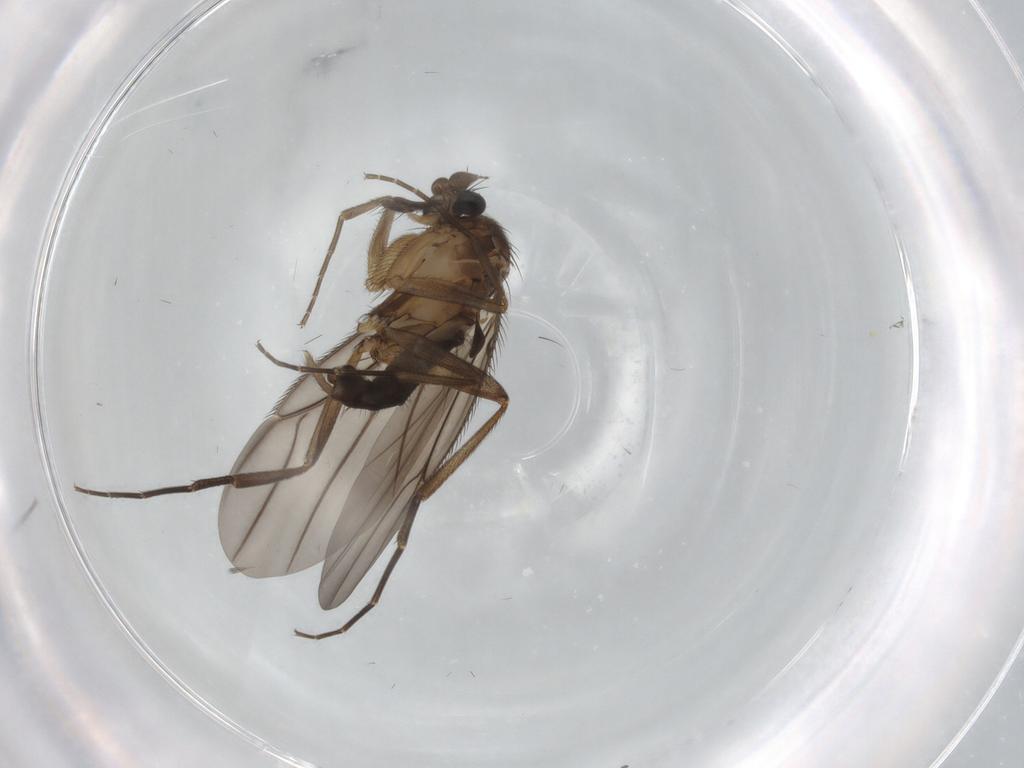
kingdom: Animalia
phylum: Arthropoda
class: Insecta
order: Diptera
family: Phoridae
